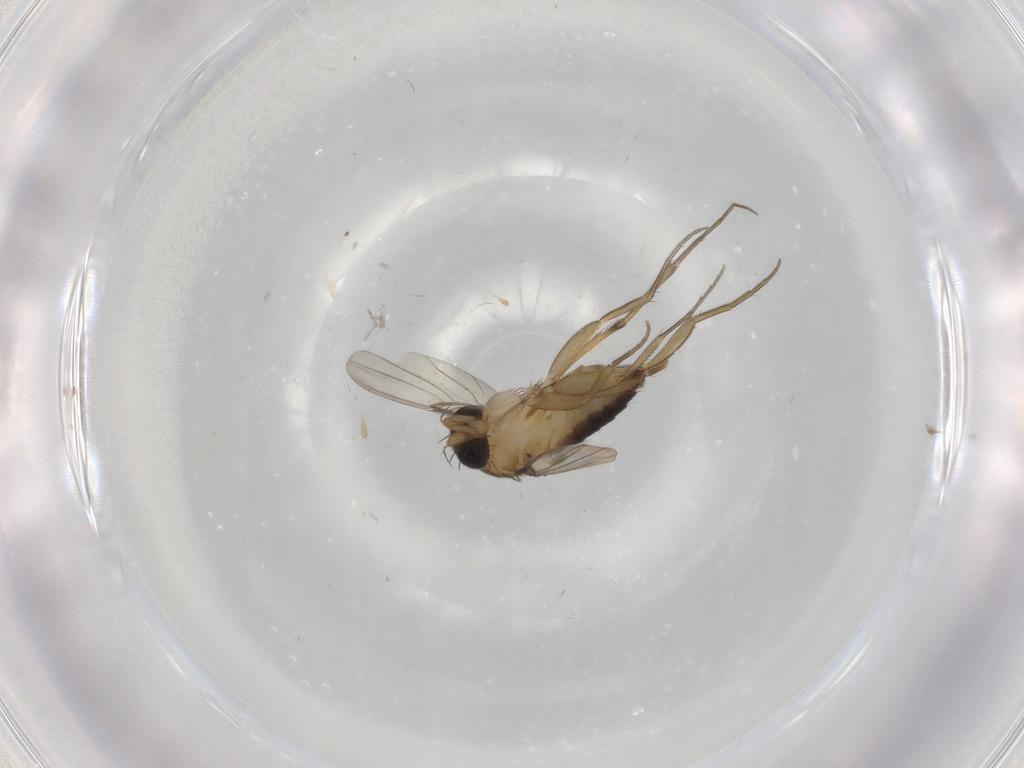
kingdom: Animalia
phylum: Arthropoda
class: Insecta
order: Diptera
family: Phoridae
